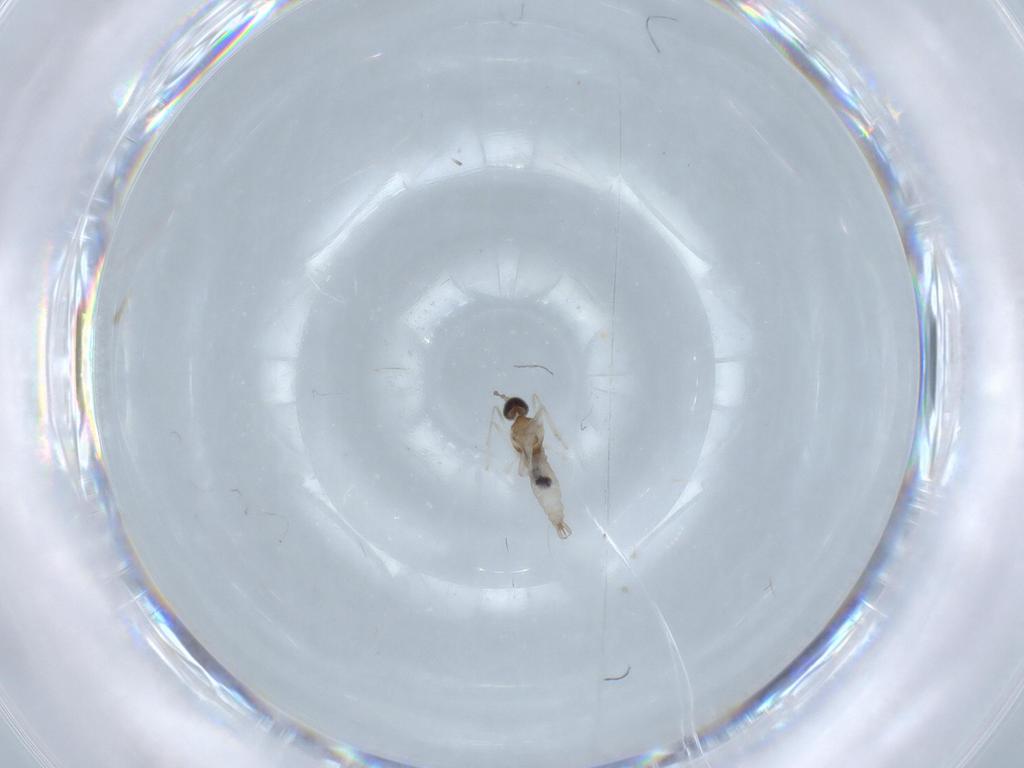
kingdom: Animalia
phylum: Arthropoda
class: Insecta
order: Diptera
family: Cecidomyiidae
